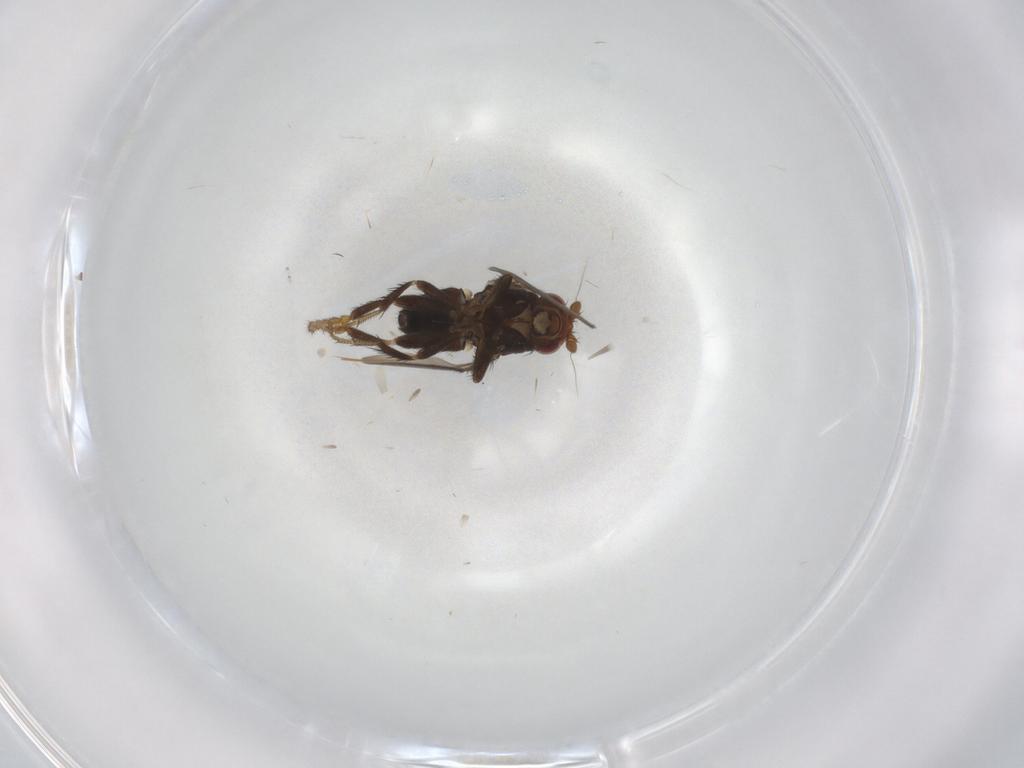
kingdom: Animalia
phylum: Arthropoda
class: Insecta
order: Diptera
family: Sphaeroceridae
